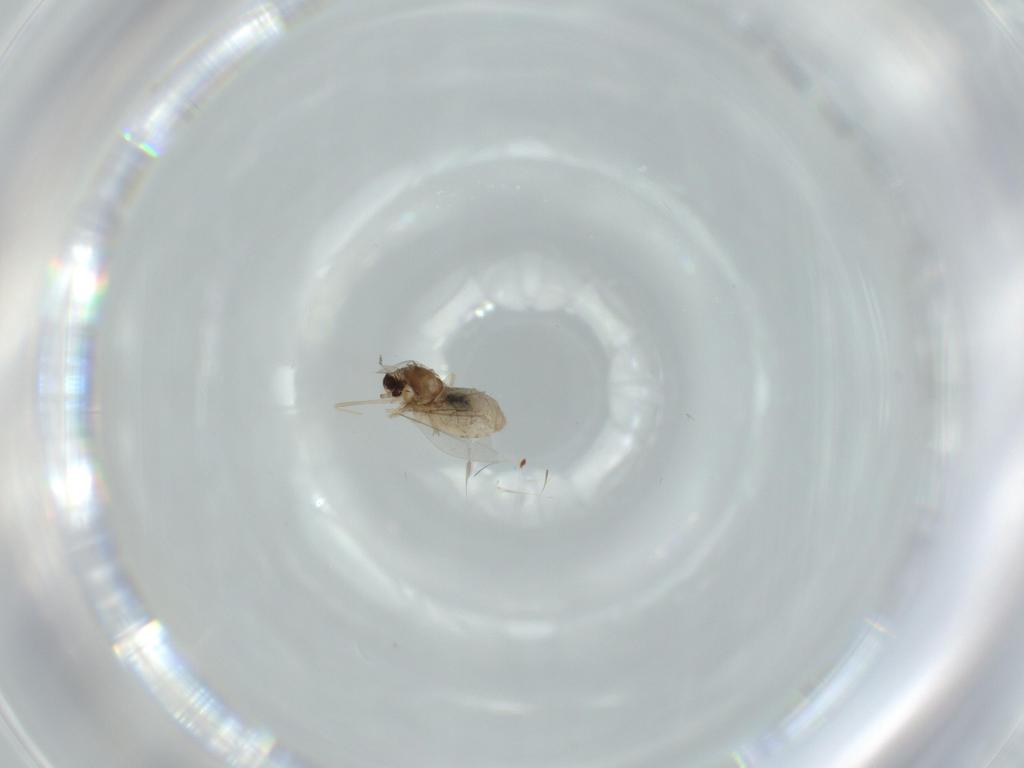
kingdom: Animalia
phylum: Arthropoda
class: Insecta
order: Diptera
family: Cecidomyiidae
